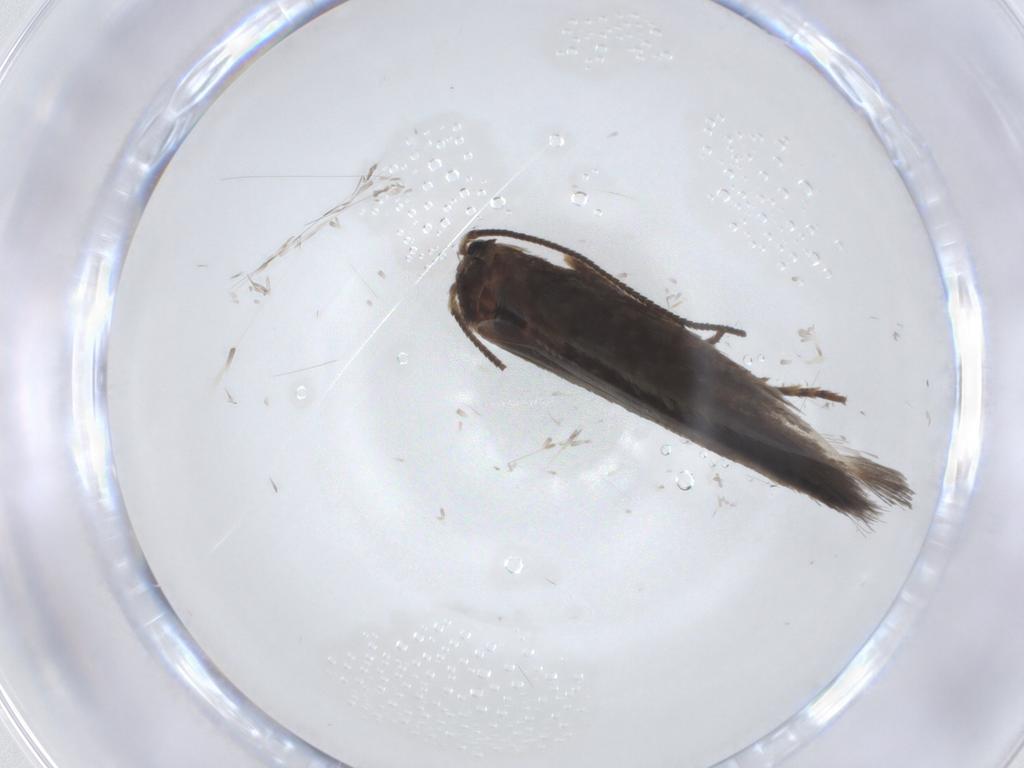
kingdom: Animalia
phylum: Arthropoda
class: Insecta
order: Lepidoptera
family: Nepticulidae
